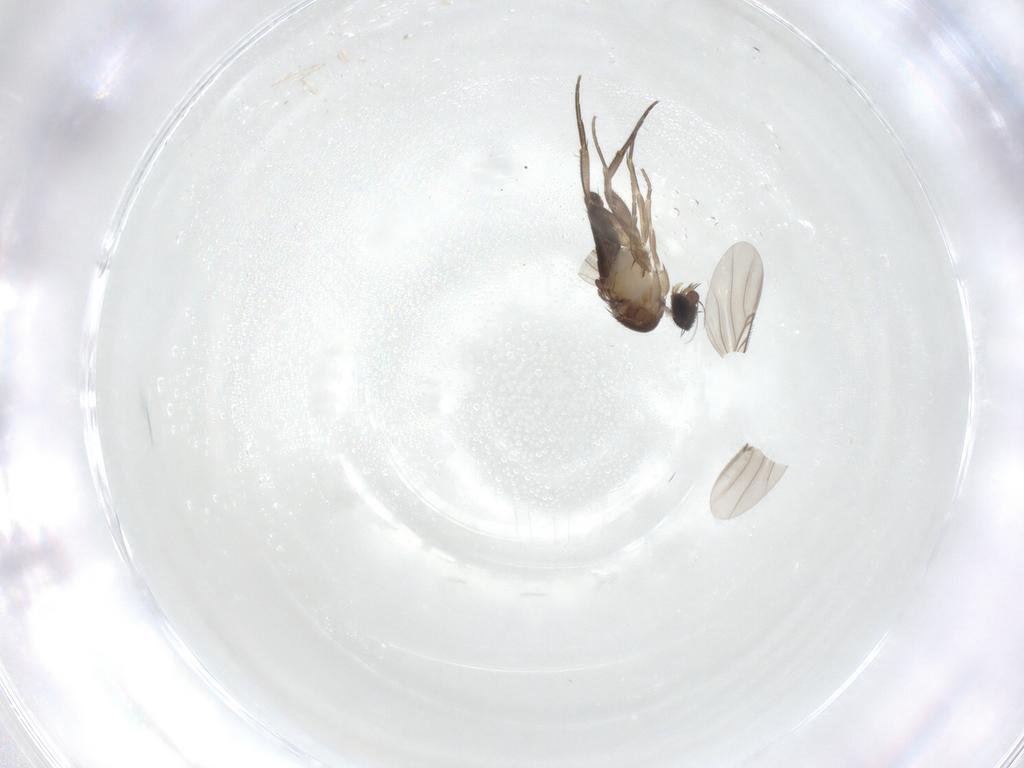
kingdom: Animalia
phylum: Arthropoda
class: Insecta
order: Diptera
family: Phoridae
